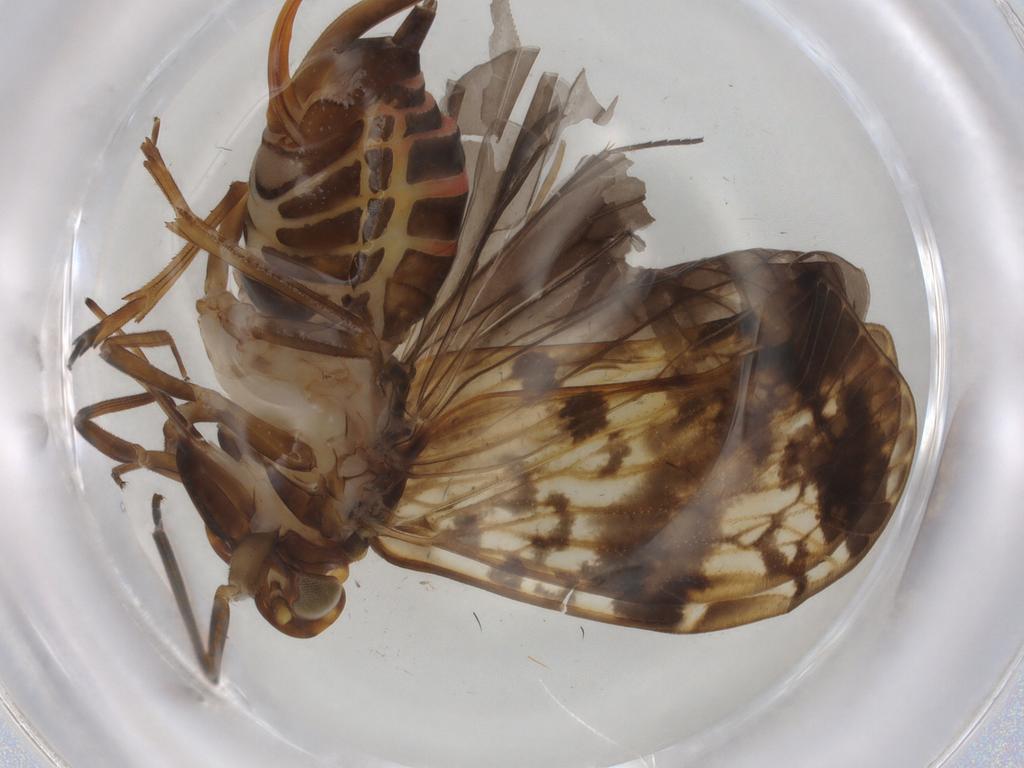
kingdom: Animalia
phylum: Arthropoda
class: Insecta
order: Hemiptera
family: Cixiidae
